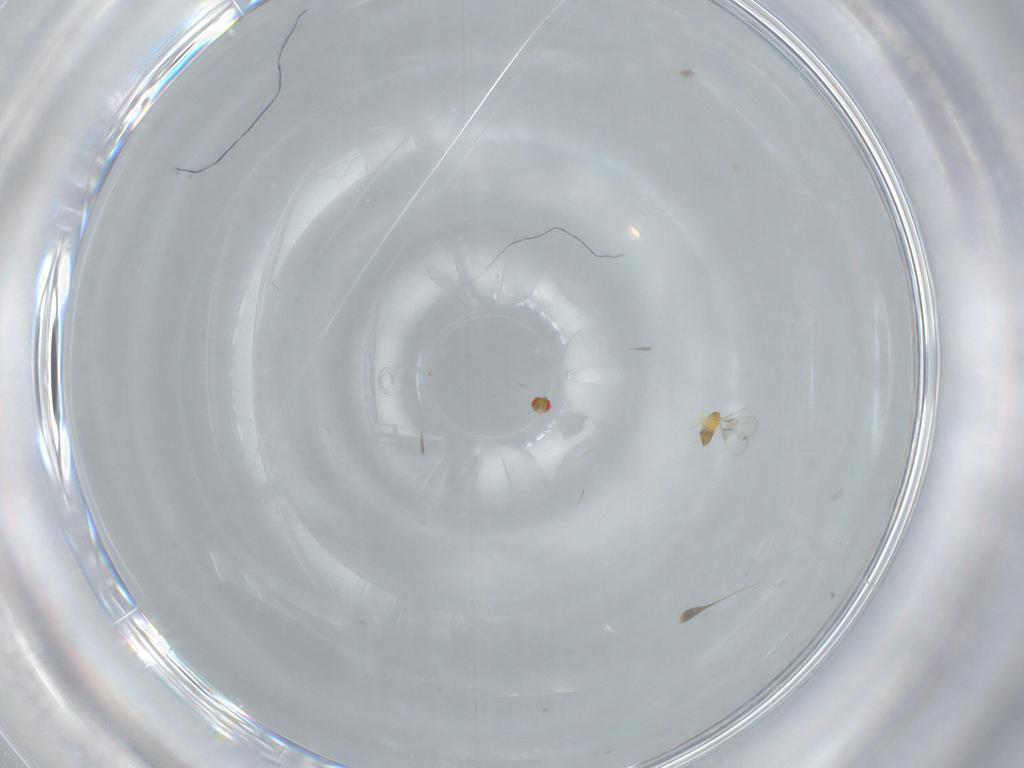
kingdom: Animalia
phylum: Arthropoda
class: Insecta
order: Hymenoptera
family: Trichogrammatidae
